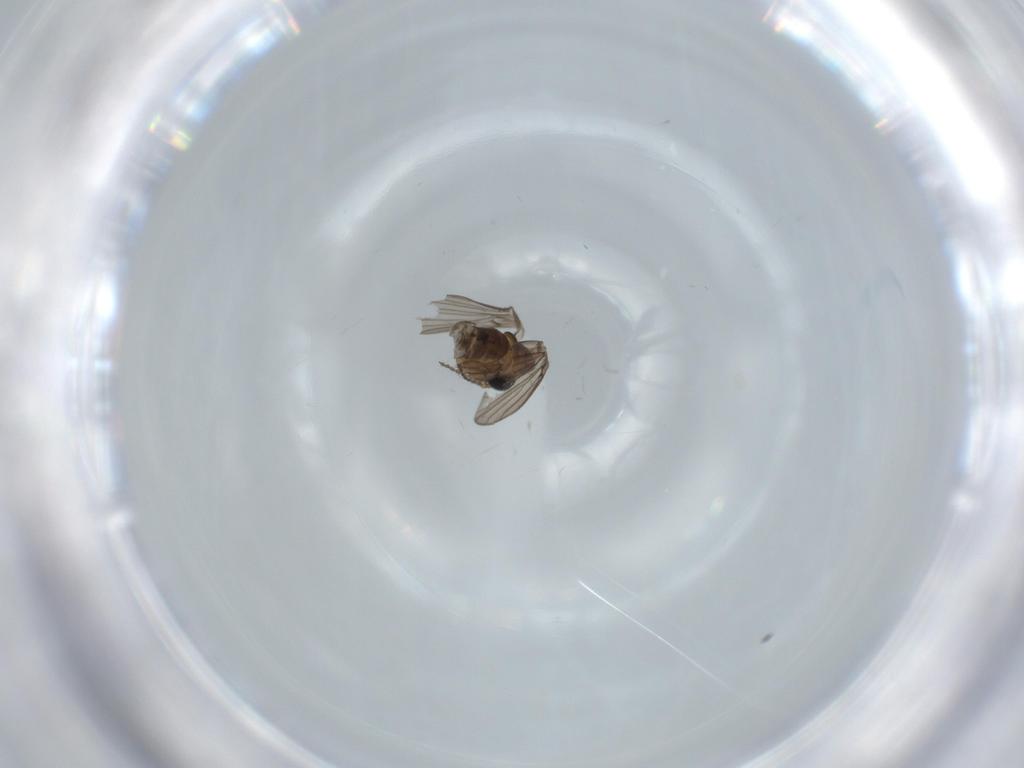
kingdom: Animalia
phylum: Arthropoda
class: Insecta
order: Diptera
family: Psychodidae
